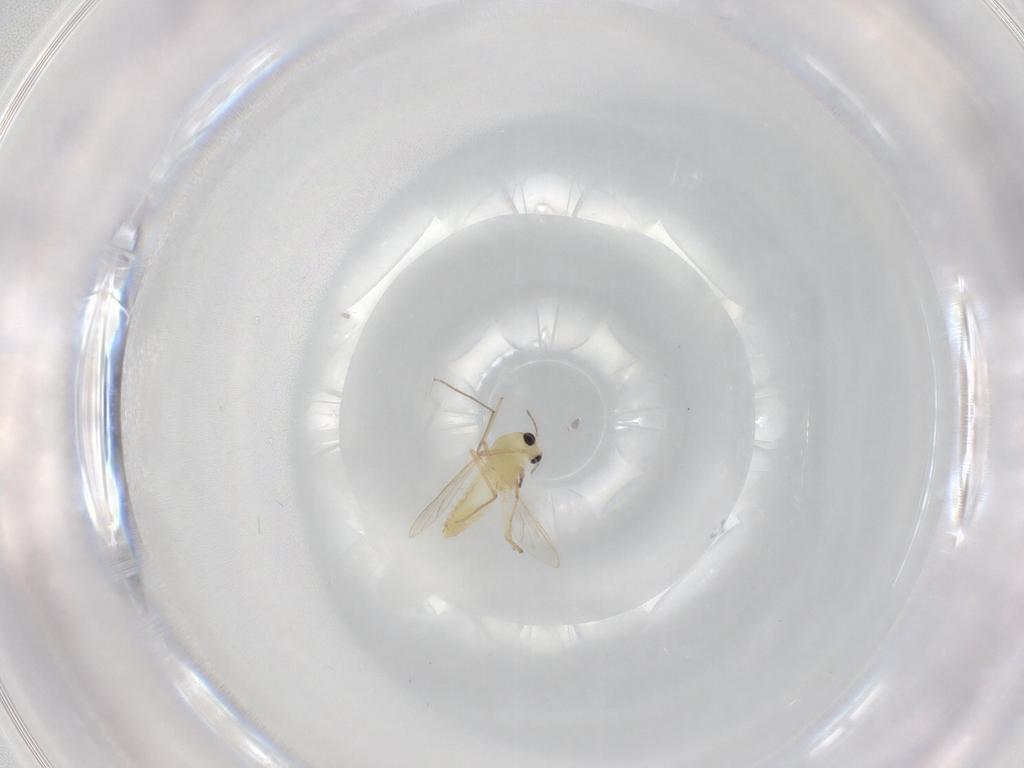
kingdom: Animalia
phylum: Arthropoda
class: Insecta
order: Diptera
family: Chironomidae
